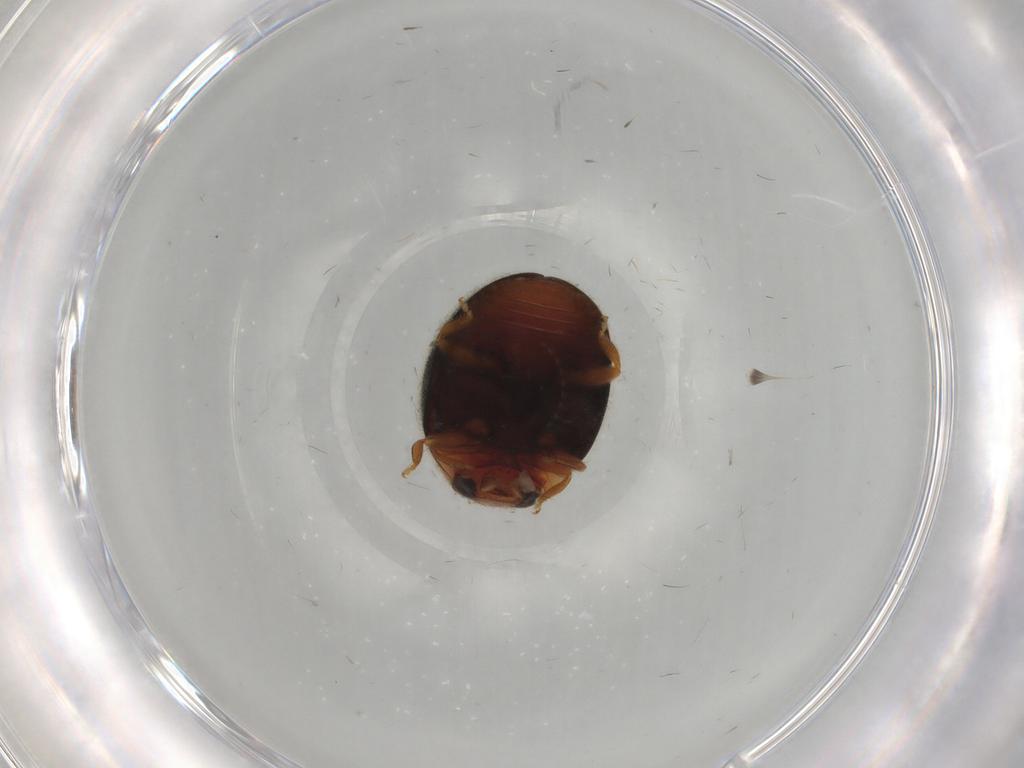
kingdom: Animalia
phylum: Arthropoda
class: Insecta
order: Coleoptera
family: Coccinellidae
